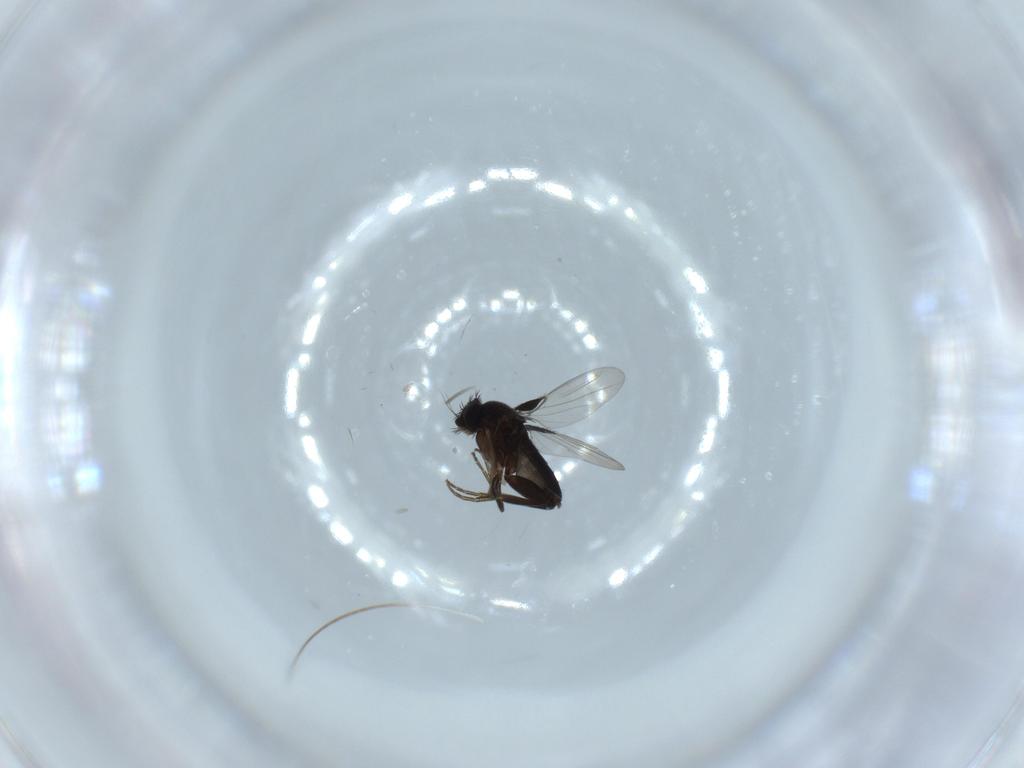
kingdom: Animalia
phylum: Arthropoda
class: Insecta
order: Diptera
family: Phoridae
